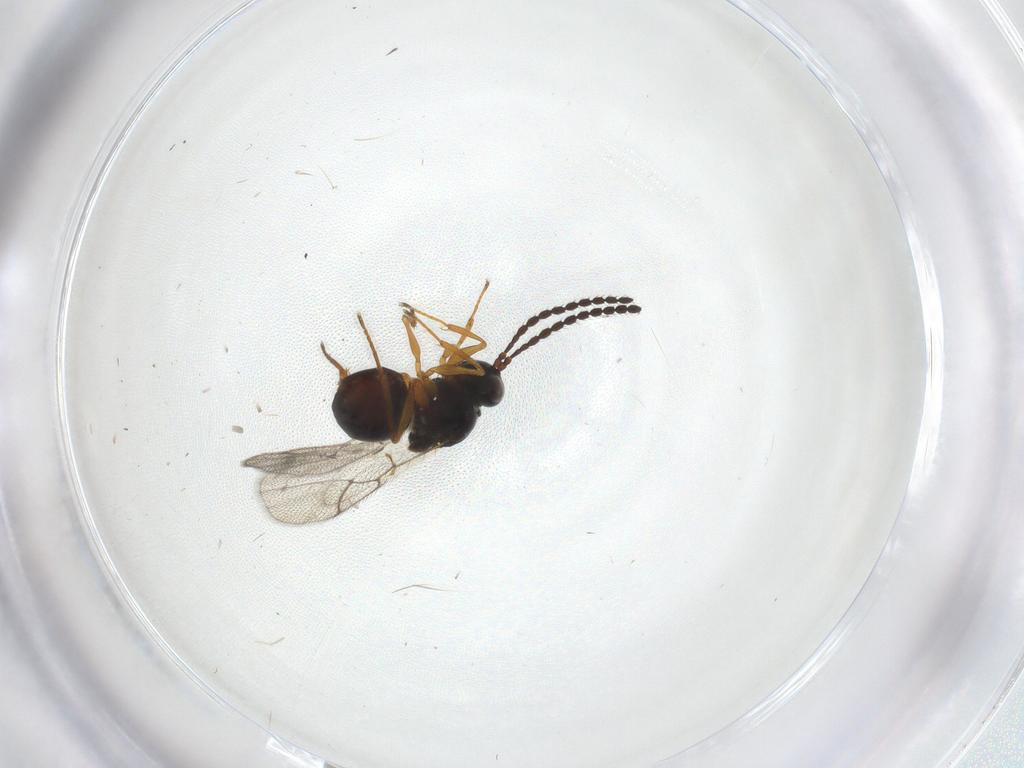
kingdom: Animalia
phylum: Arthropoda
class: Insecta
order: Hymenoptera
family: Figitidae
